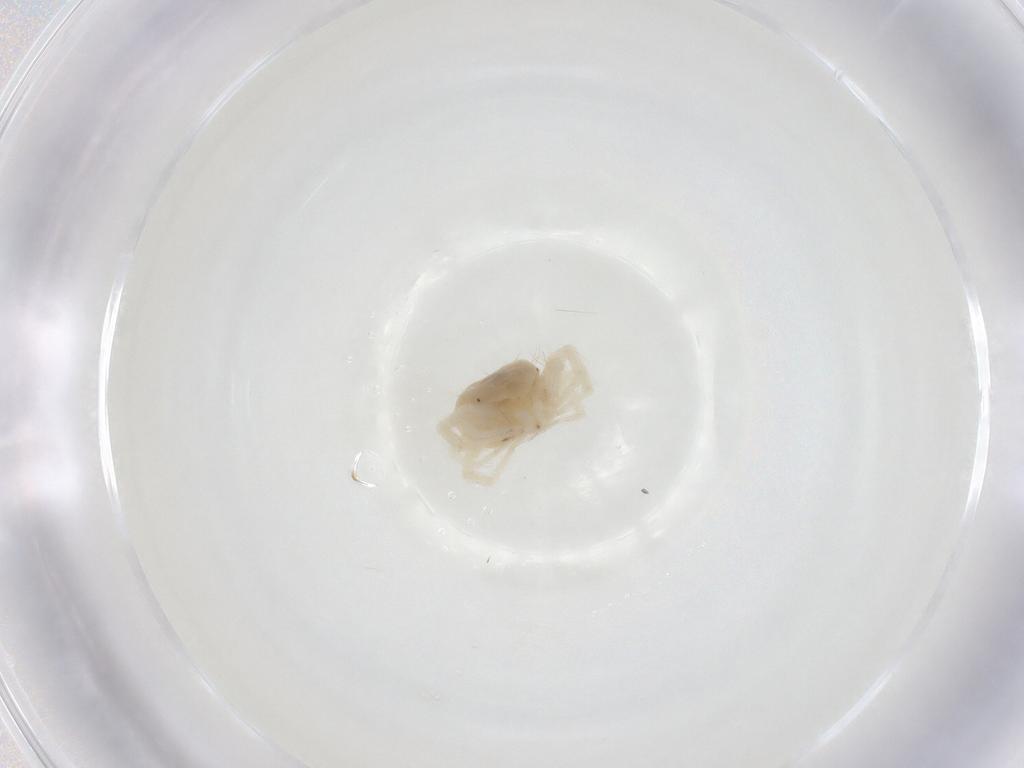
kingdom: Animalia
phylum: Arthropoda
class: Arachnida
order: Trombidiformes
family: Anystidae
